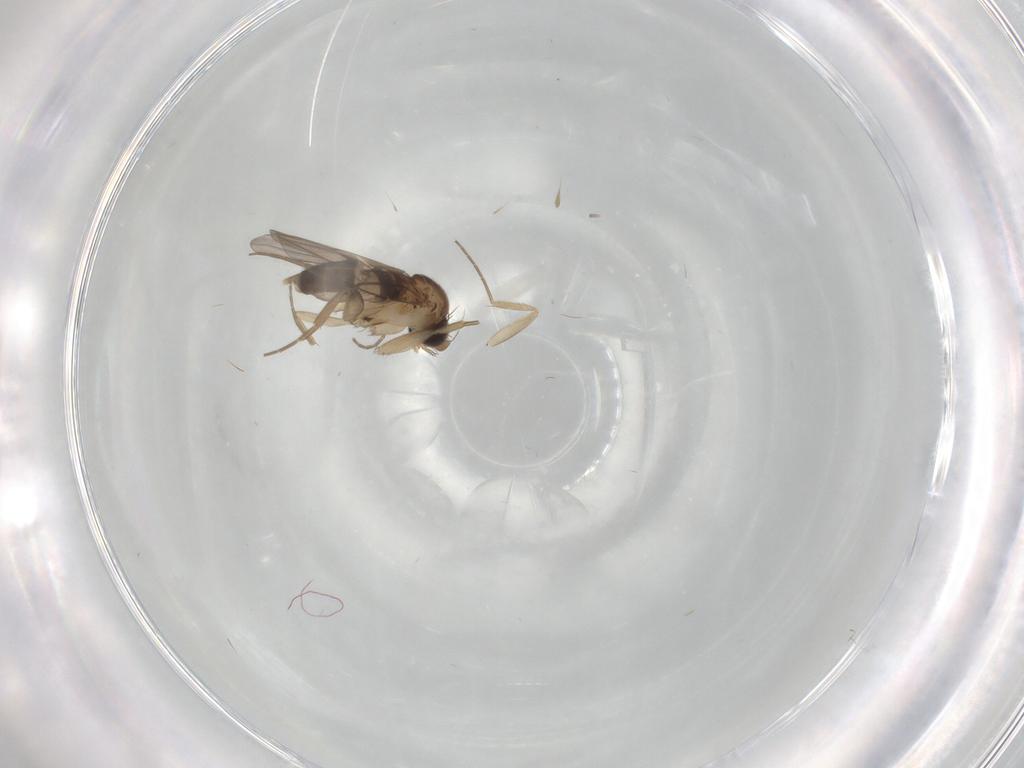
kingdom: Animalia
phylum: Arthropoda
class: Insecta
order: Diptera
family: Phoridae
